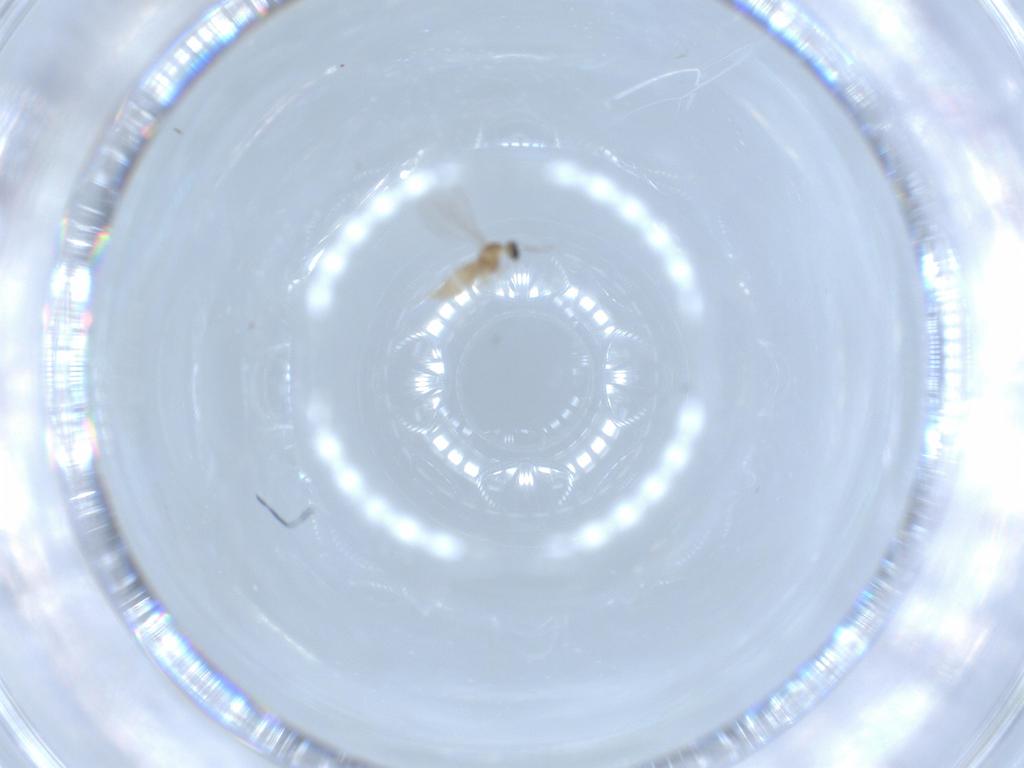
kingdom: Animalia
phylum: Arthropoda
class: Insecta
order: Diptera
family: Cecidomyiidae
